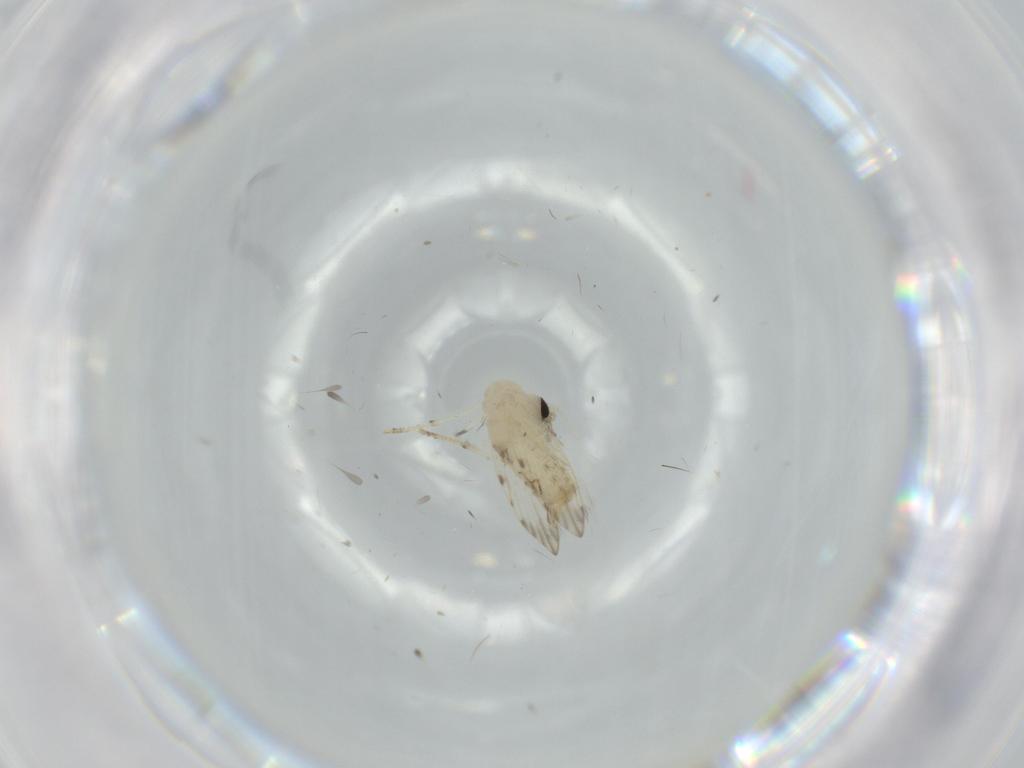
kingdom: Animalia
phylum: Arthropoda
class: Insecta
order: Diptera
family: Psychodidae
